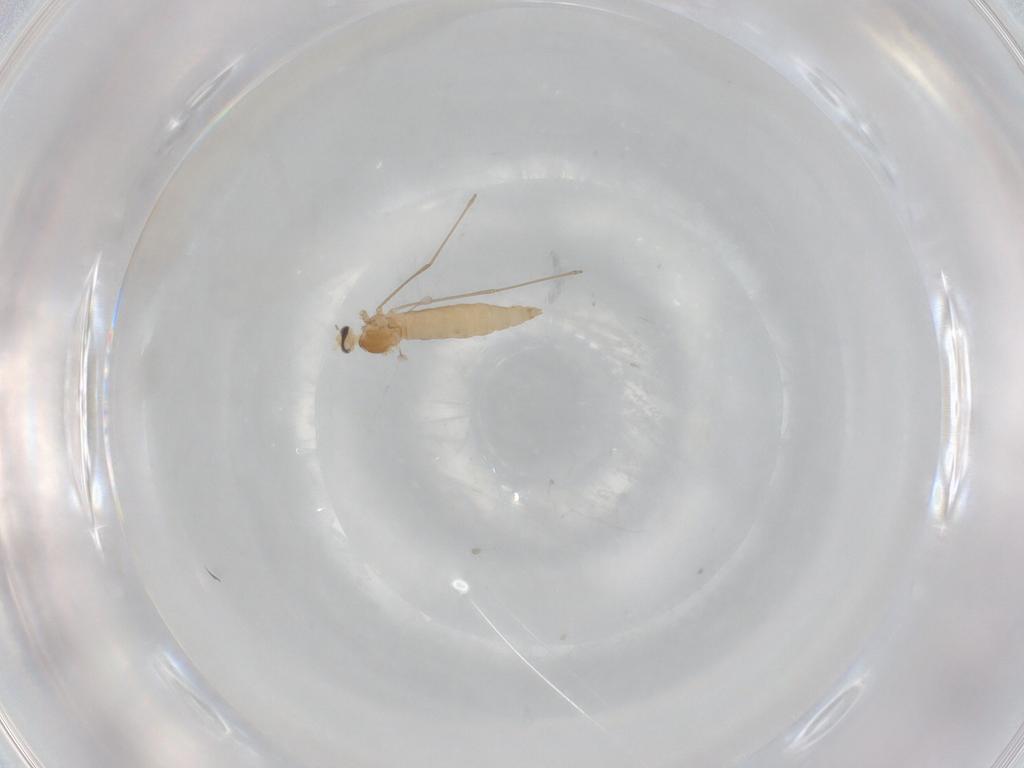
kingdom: Animalia
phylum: Arthropoda
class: Insecta
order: Diptera
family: Cecidomyiidae
